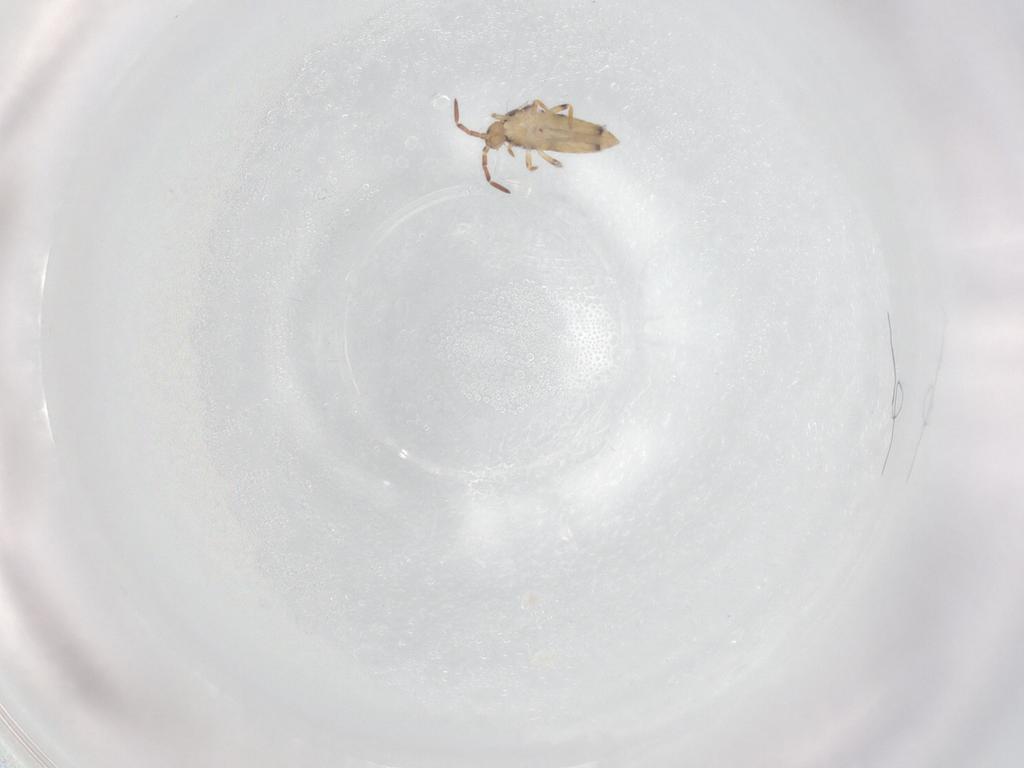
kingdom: Animalia
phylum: Arthropoda
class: Collembola
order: Entomobryomorpha
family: Entomobryidae
